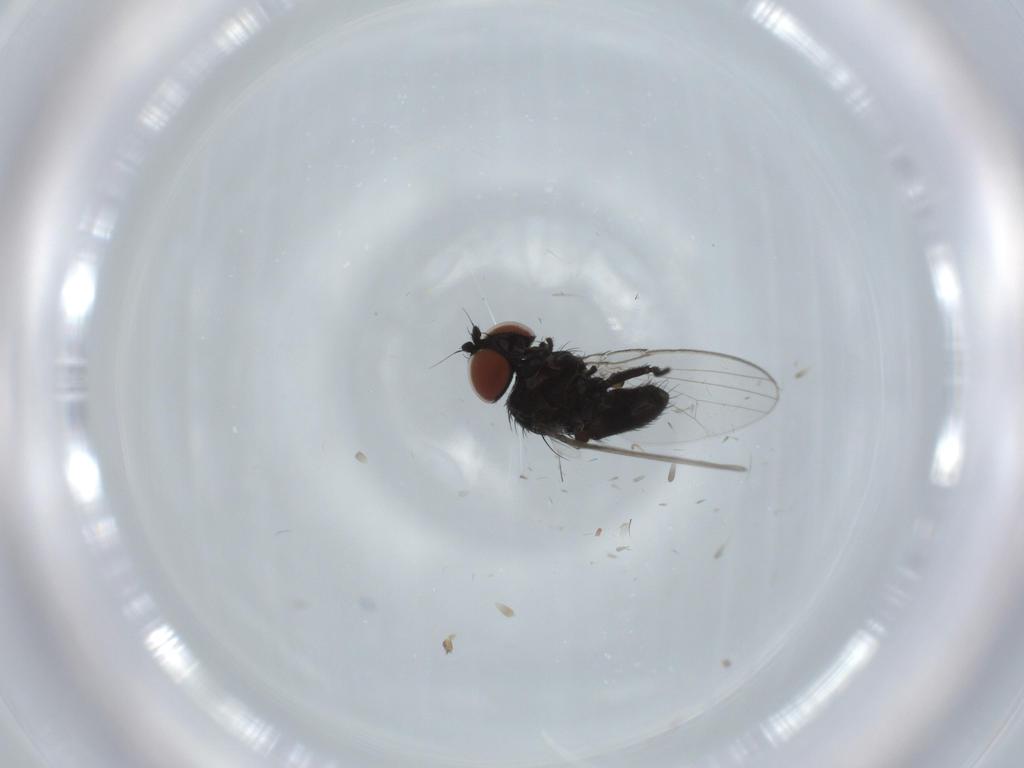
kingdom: Animalia
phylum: Arthropoda
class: Insecta
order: Diptera
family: Milichiidae
